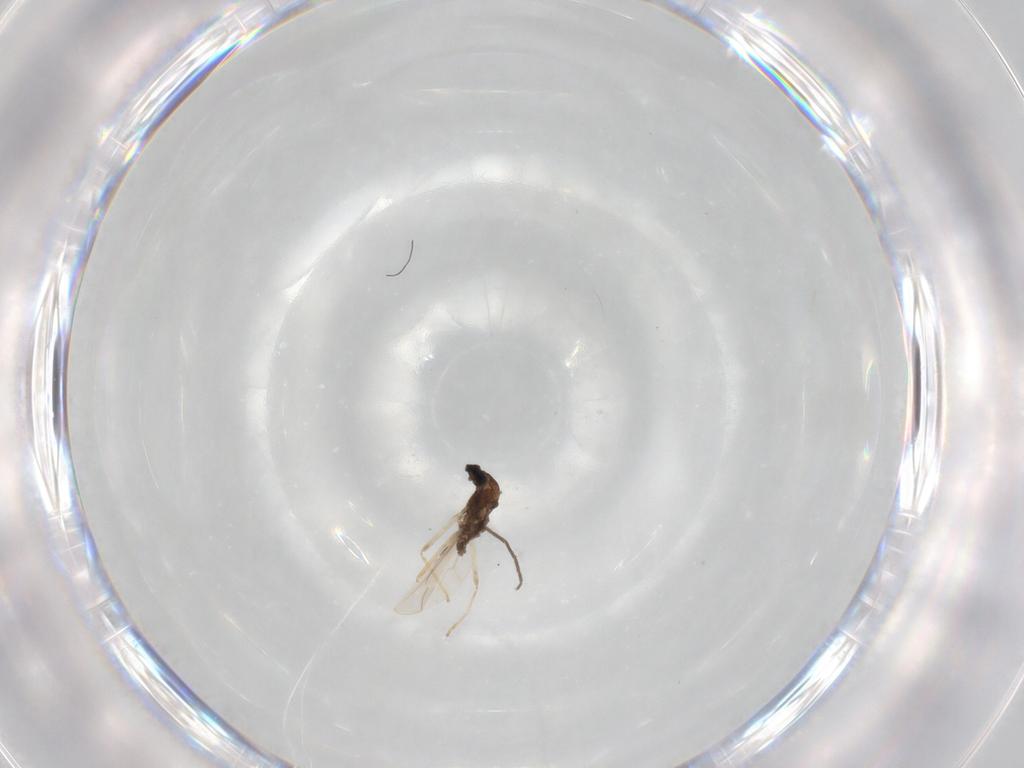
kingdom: Animalia
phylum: Arthropoda
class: Insecta
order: Diptera
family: Cecidomyiidae
